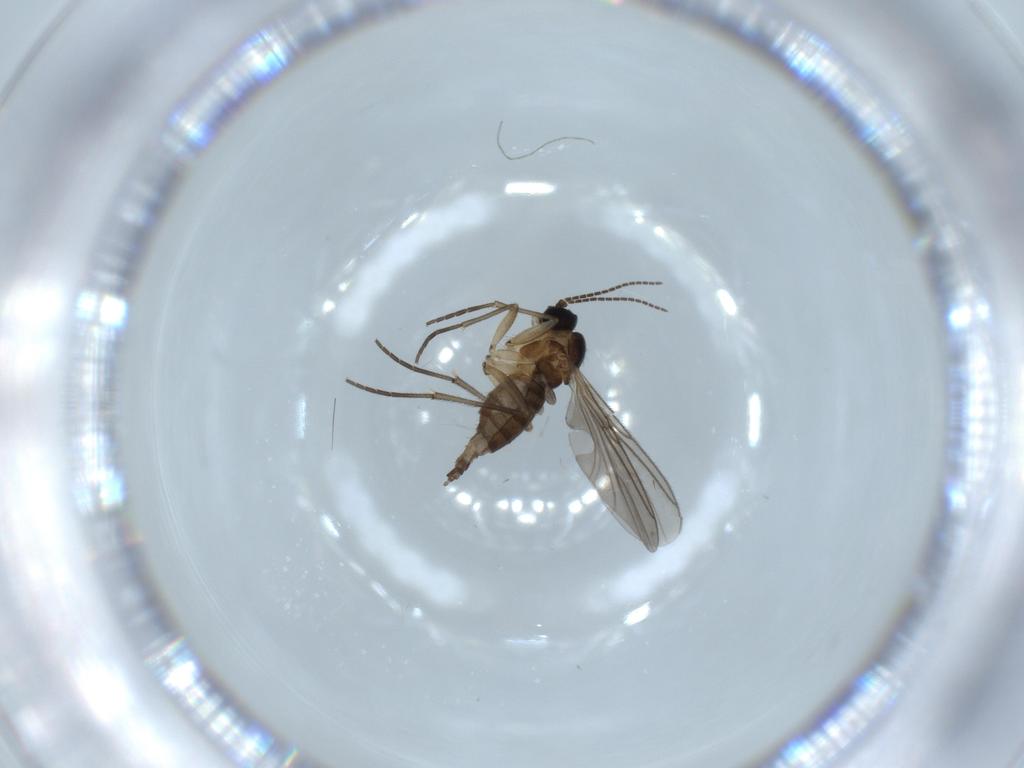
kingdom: Animalia
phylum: Arthropoda
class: Insecta
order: Diptera
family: Sciaridae
